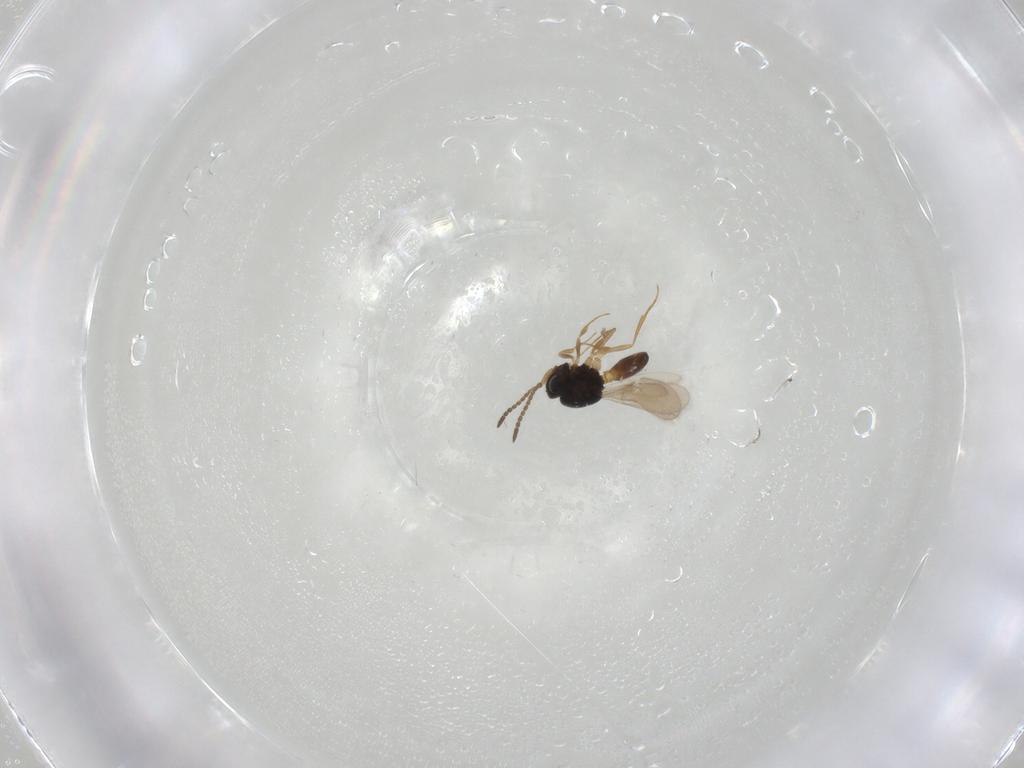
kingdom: Animalia
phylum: Arthropoda
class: Insecta
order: Hymenoptera
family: Scelionidae
